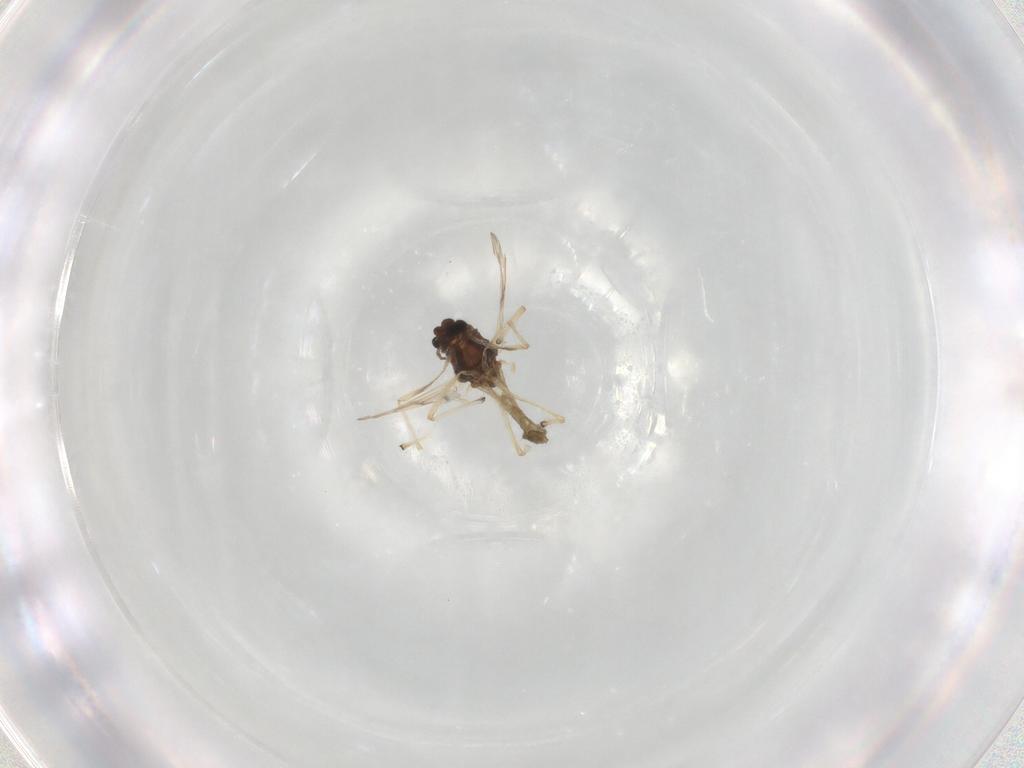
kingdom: Animalia
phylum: Arthropoda
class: Insecta
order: Diptera
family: Chironomidae
